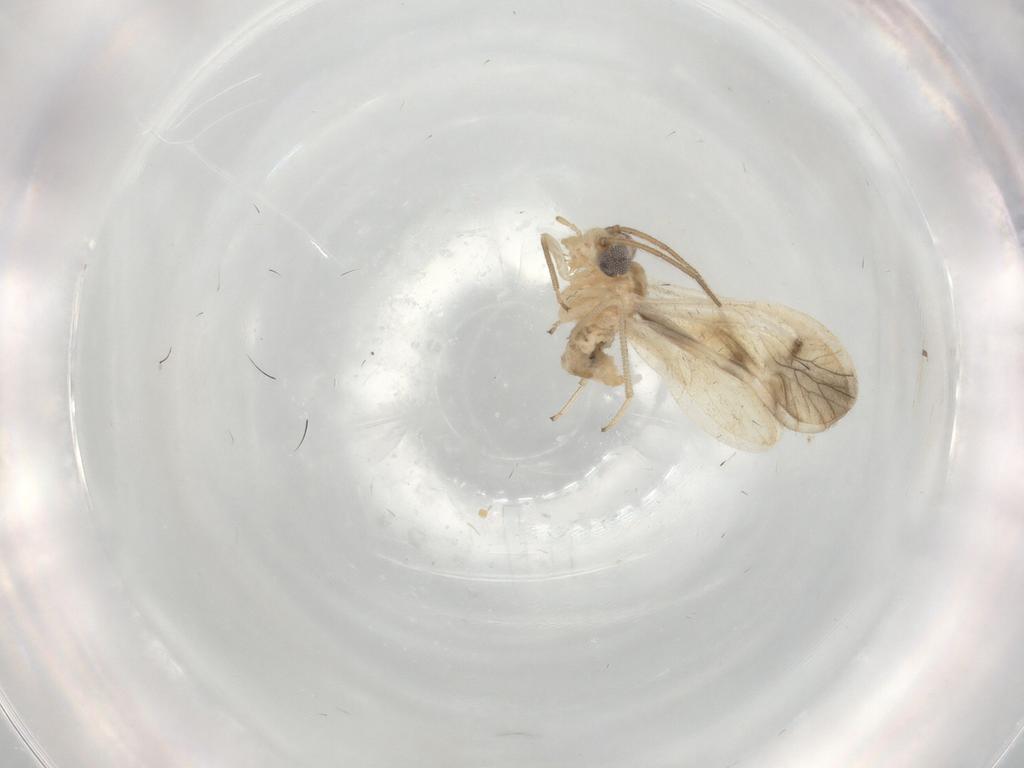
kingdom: Animalia
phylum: Arthropoda
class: Insecta
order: Psocodea
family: Caeciliusidae
